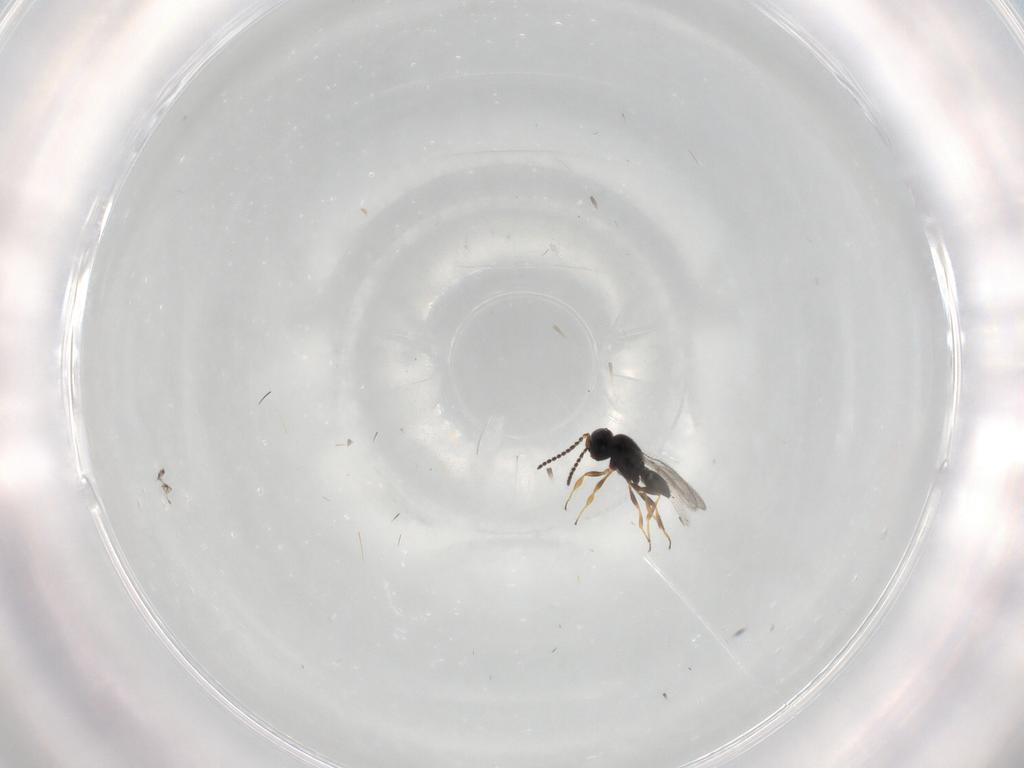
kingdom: Animalia
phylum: Arthropoda
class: Insecta
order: Hymenoptera
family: Scelionidae
